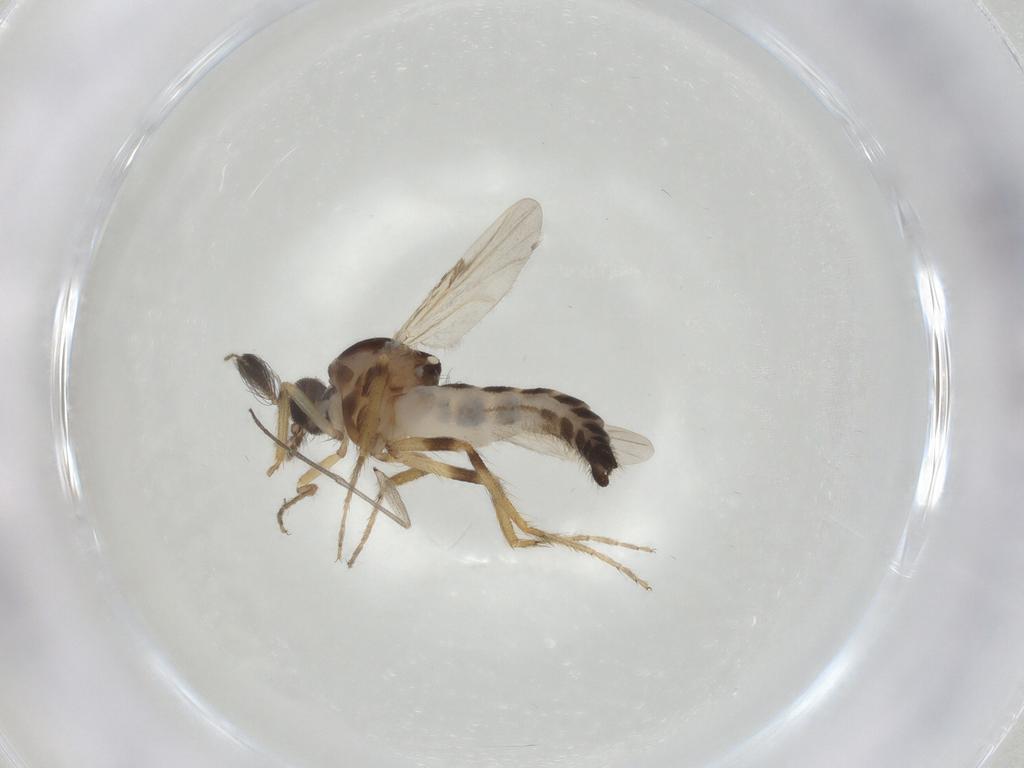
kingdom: Animalia
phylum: Arthropoda
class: Insecta
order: Diptera
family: Ceratopogonidae
